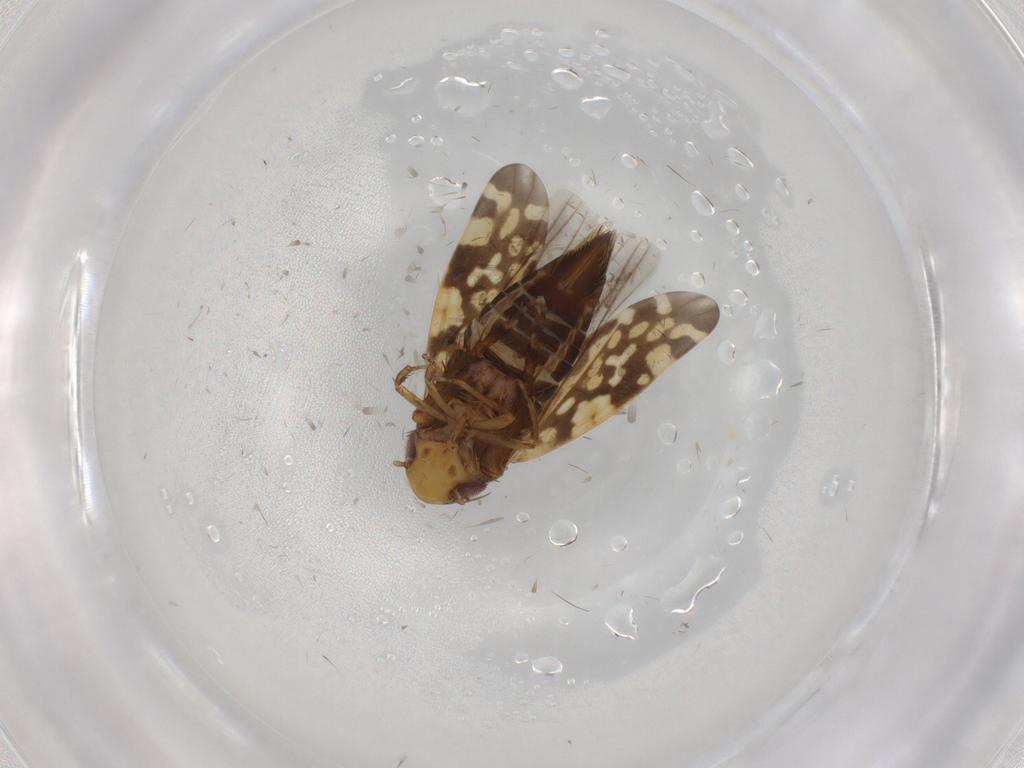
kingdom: Animalia
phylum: Arthropoda
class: Insecta
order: Hemiptera
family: Cicadellidae
